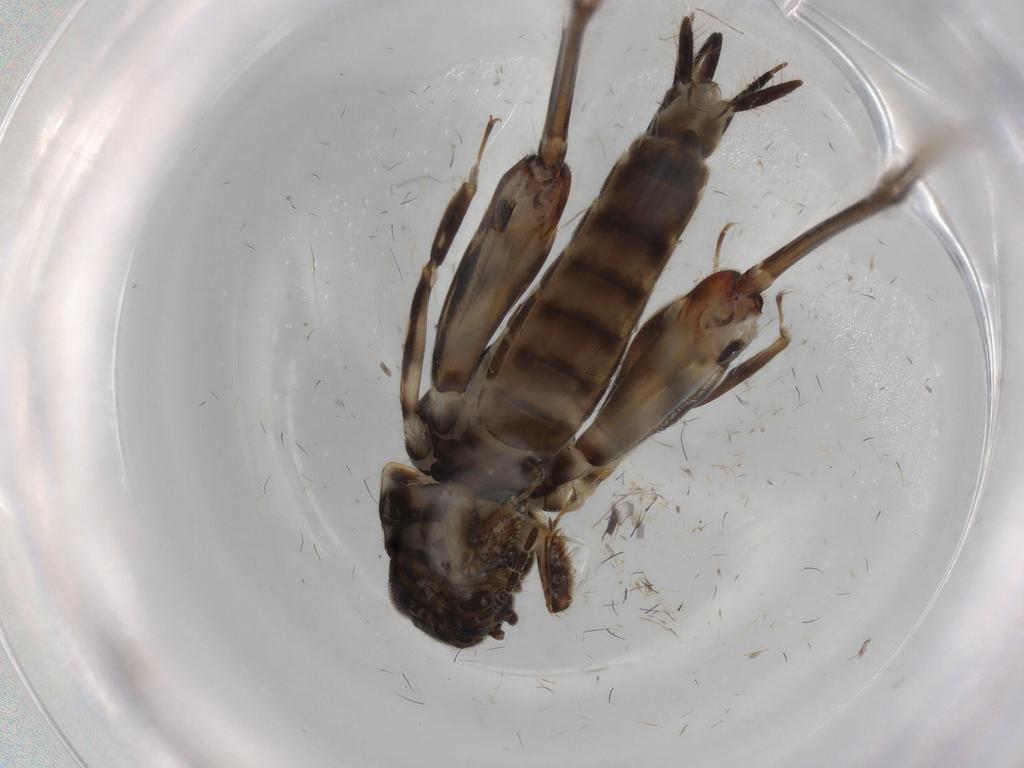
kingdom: Animalia
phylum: Arthropoda
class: Insecta
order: Orthoptera
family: Tridactylidae
